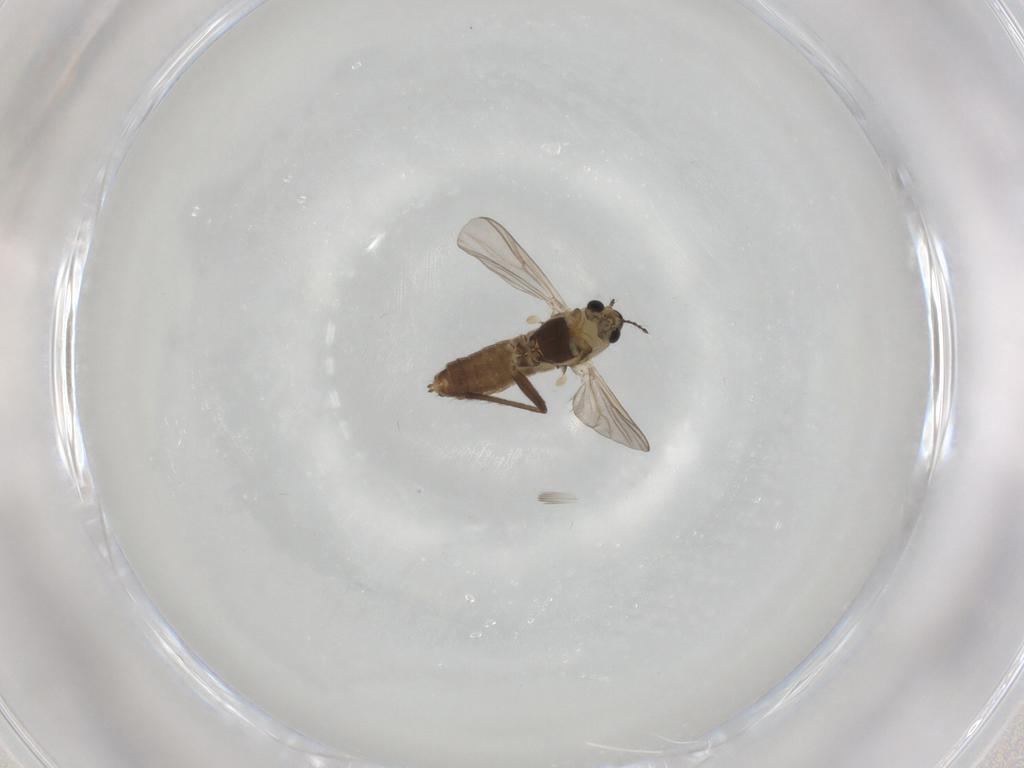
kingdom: Animalia
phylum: Arthropoda
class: Insecta
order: Diptera
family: Chironomidae
